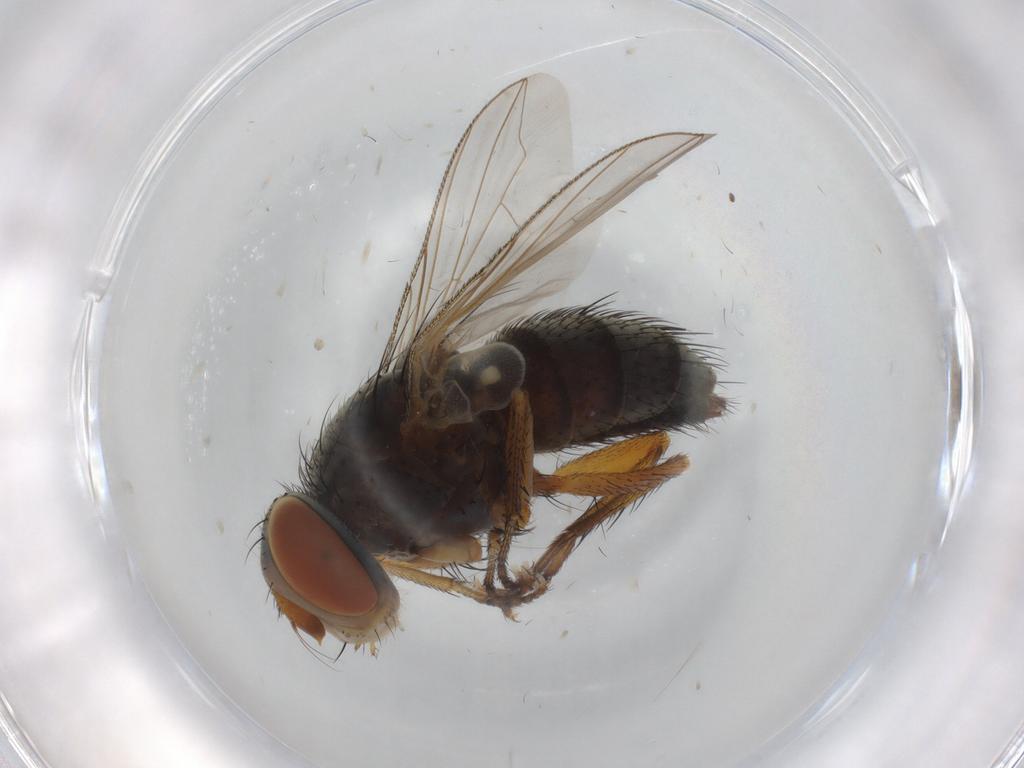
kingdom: Animalia
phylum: Arthropoda
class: Insecta
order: Diptera
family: Tachinidae
